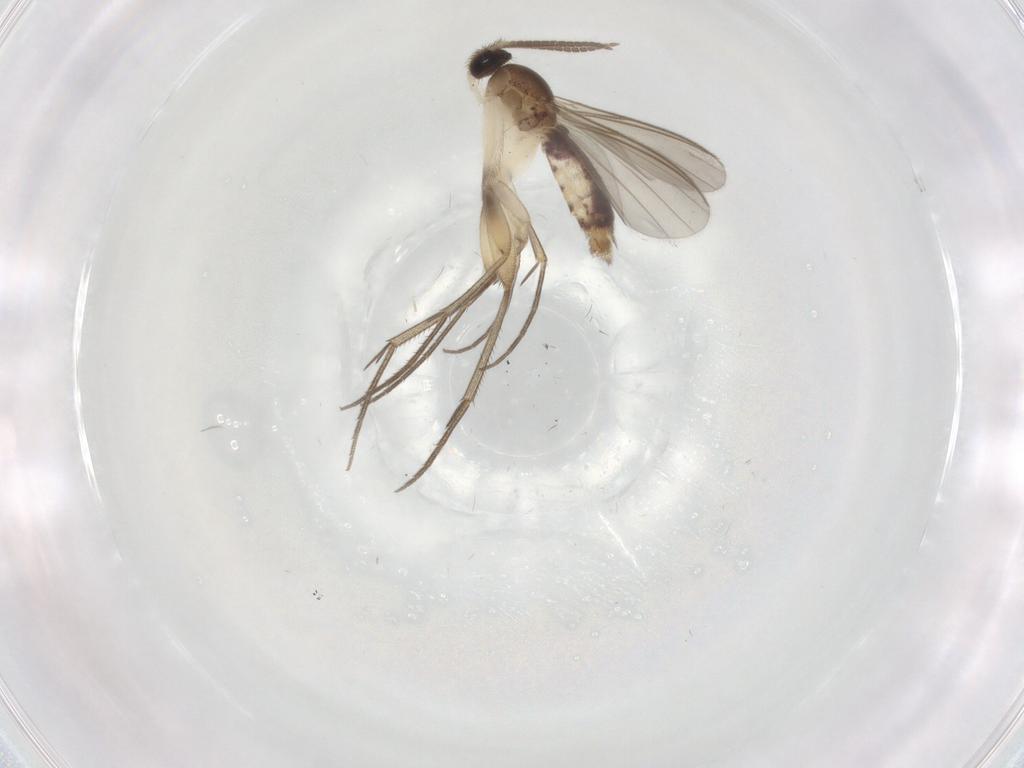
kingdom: Animalia
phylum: Arthropoda
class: Insecta
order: Diptera
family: Mycetophilidae
